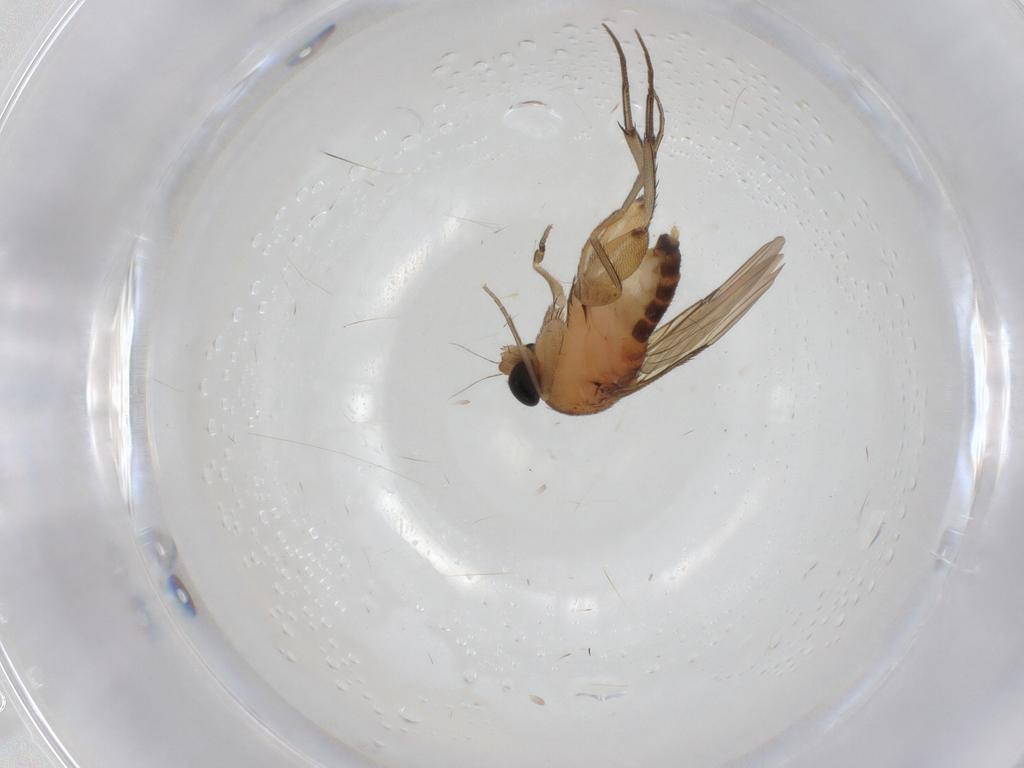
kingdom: Animalia
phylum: Arthropoda
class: Insecta
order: Diptera
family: Phoridae
